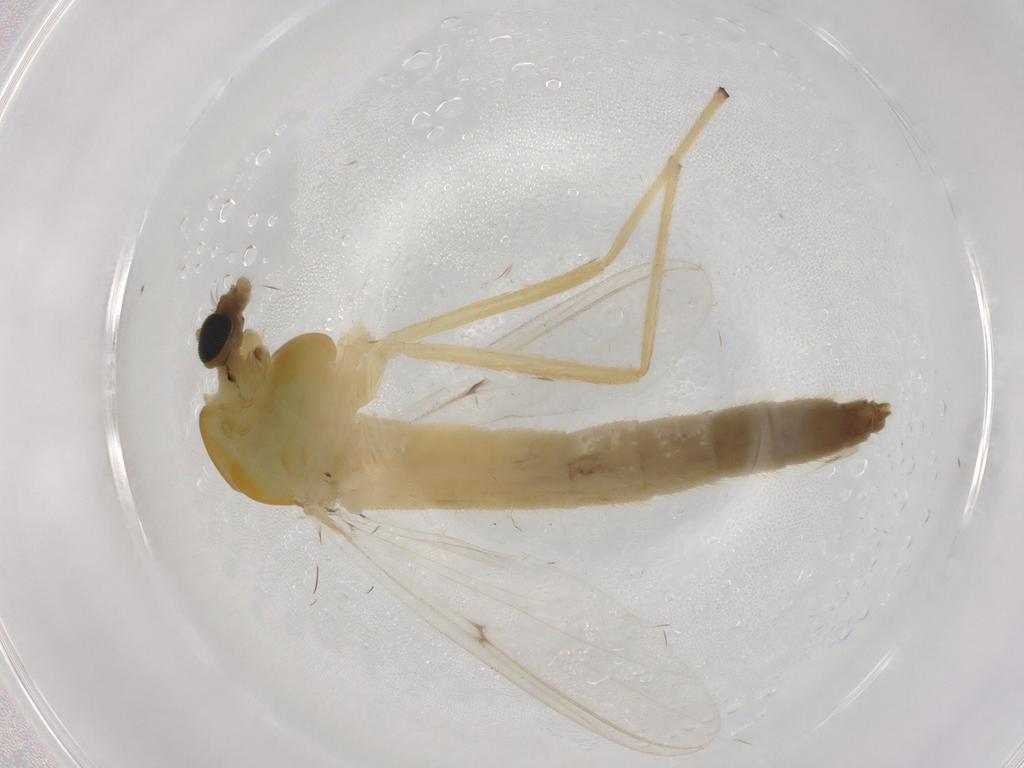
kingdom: Animalia
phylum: Arthropoda
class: Insecta
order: Diptera
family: Chironomidae
